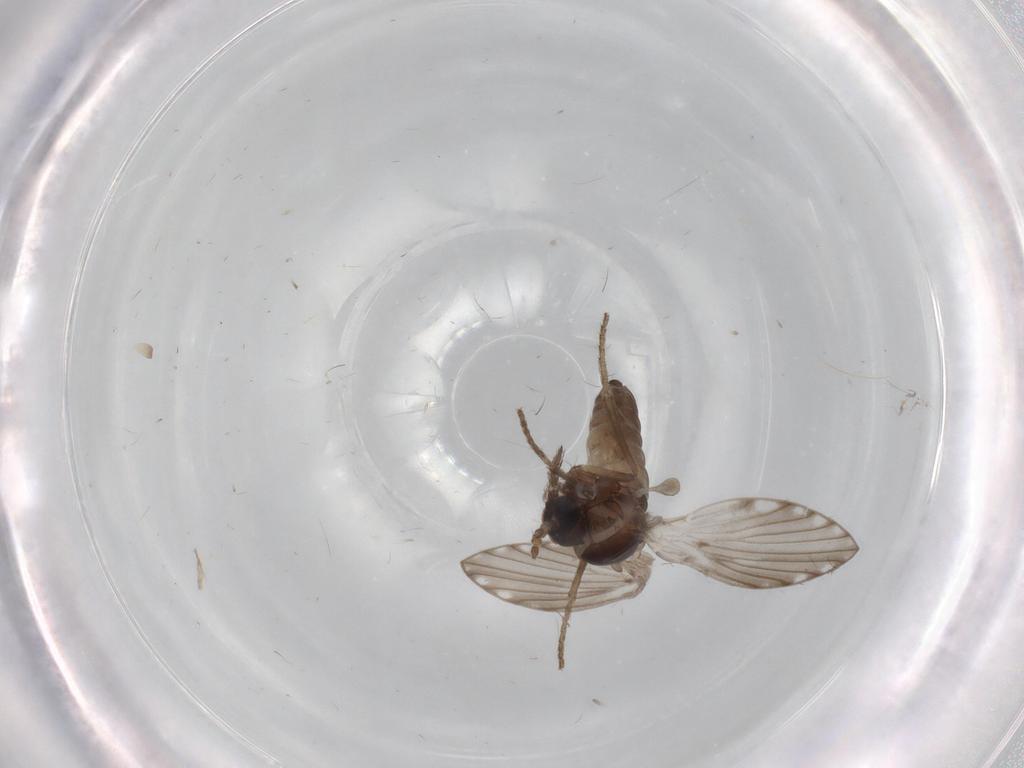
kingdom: Animalia
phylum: Arthropoda
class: Insecta
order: Diptera
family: Psychodidae
